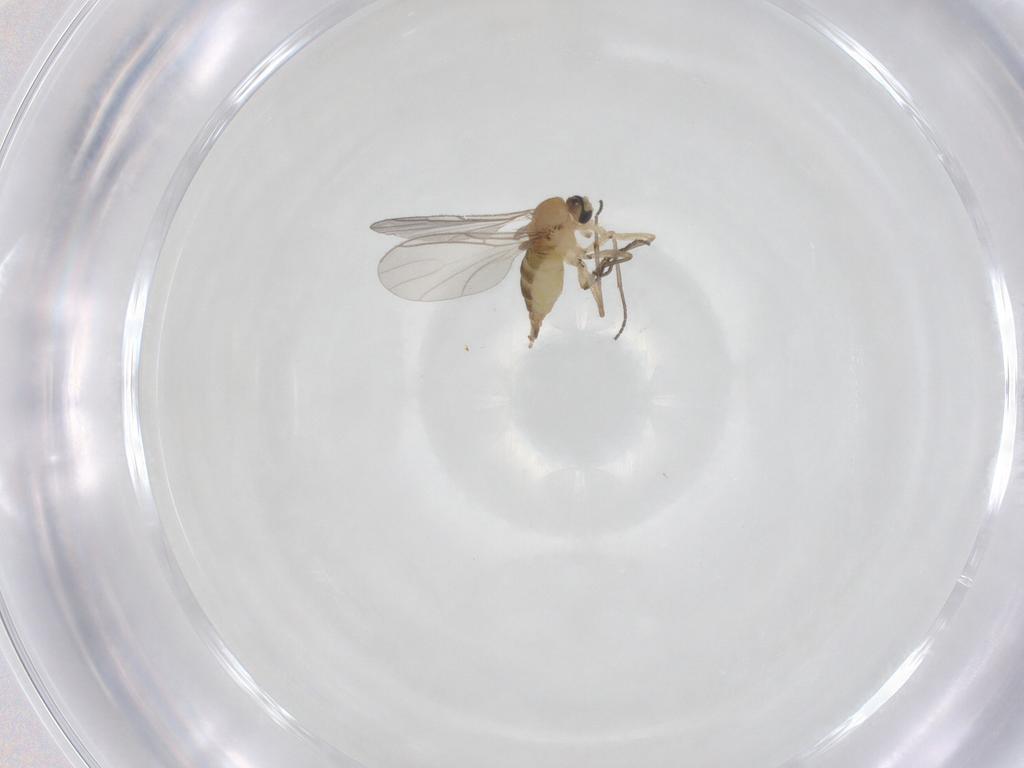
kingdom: Animalia
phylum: Arthropoda
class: Insecta
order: Diptera
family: Sciaridae
